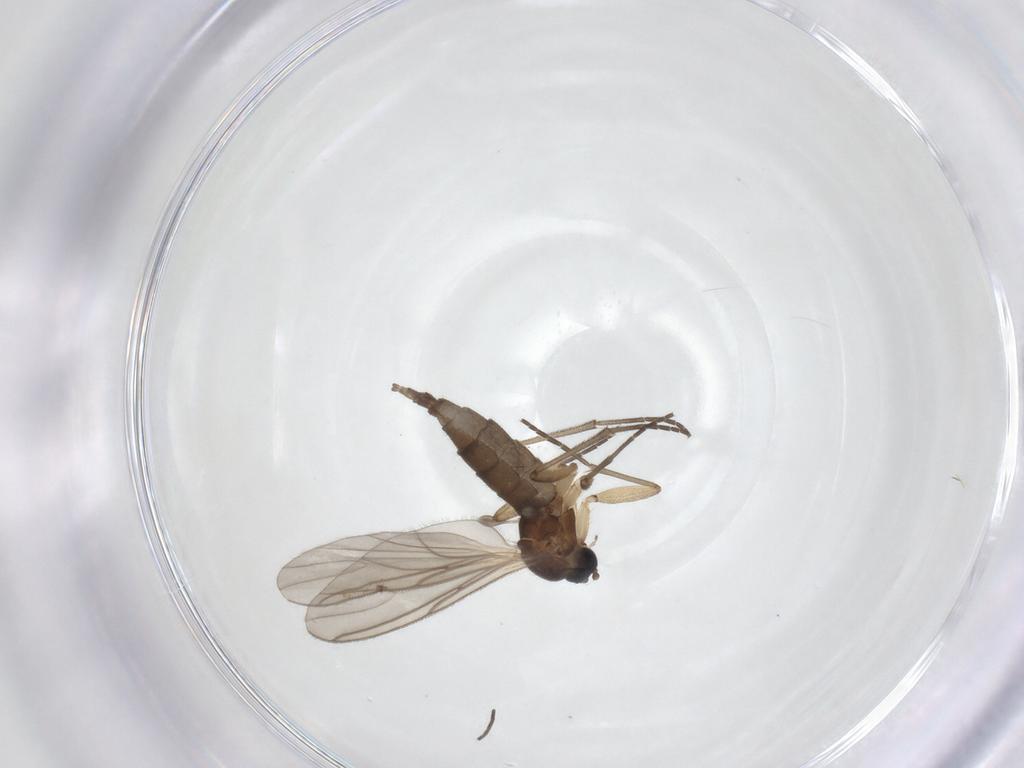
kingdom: Animalia
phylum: Arthropoda
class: Insecta
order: Diptera
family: Sciaridae
